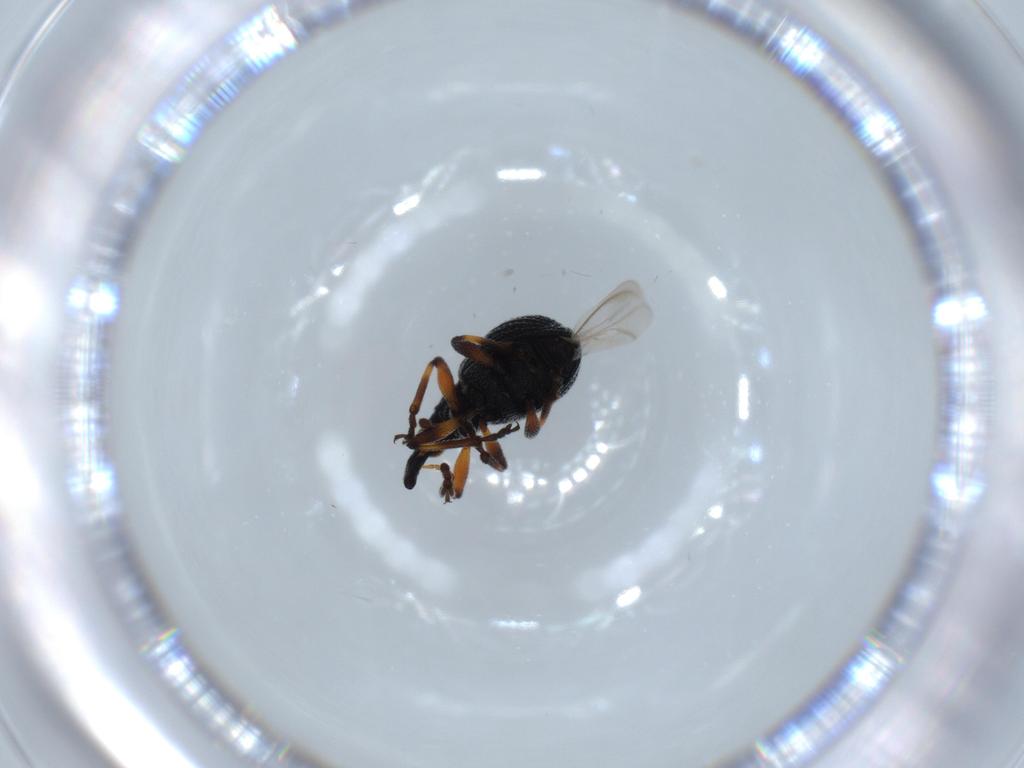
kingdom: Animalia
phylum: Arthropoda
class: Insecta
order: Coleoptera
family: Brentidae
